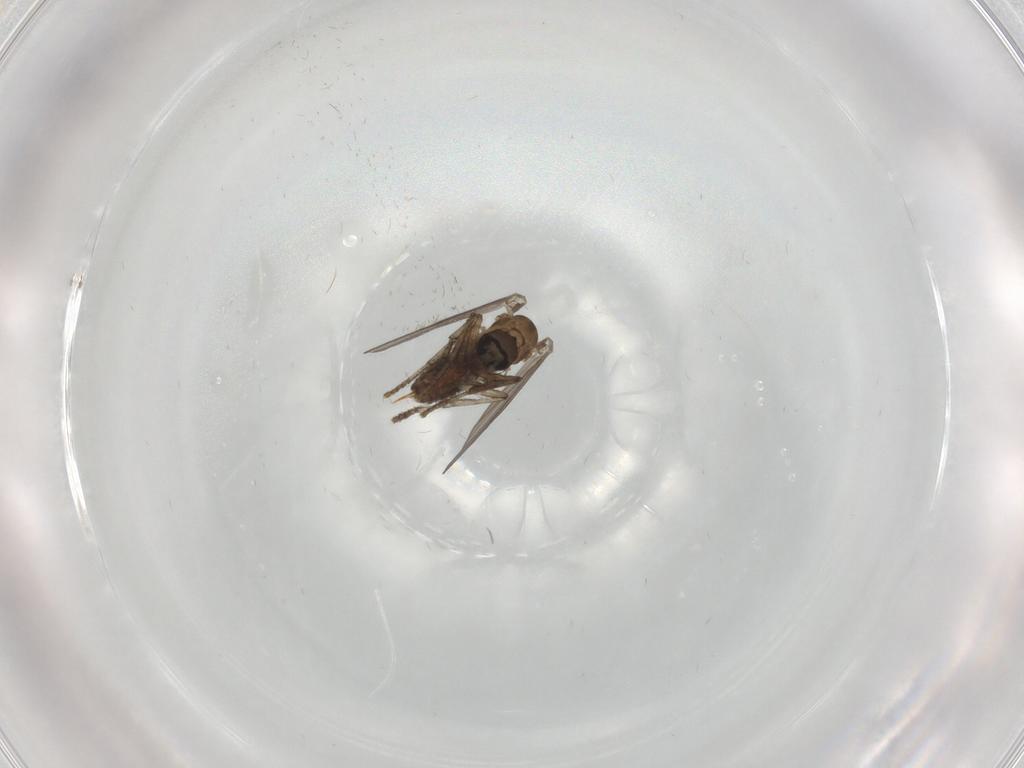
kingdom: Animalia
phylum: Arthropoda
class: Insecta
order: Diptera
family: Psychodidae
